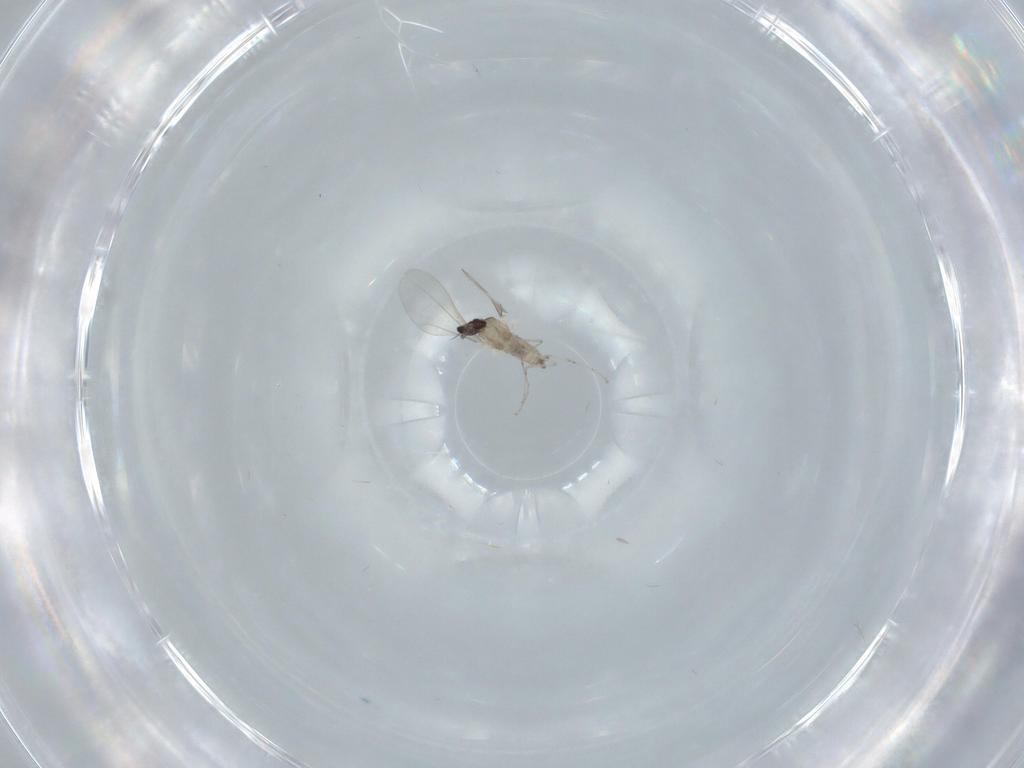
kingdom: Animalia
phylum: Arthropoda
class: Insecta
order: Diptera
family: Cecidomyiidae
